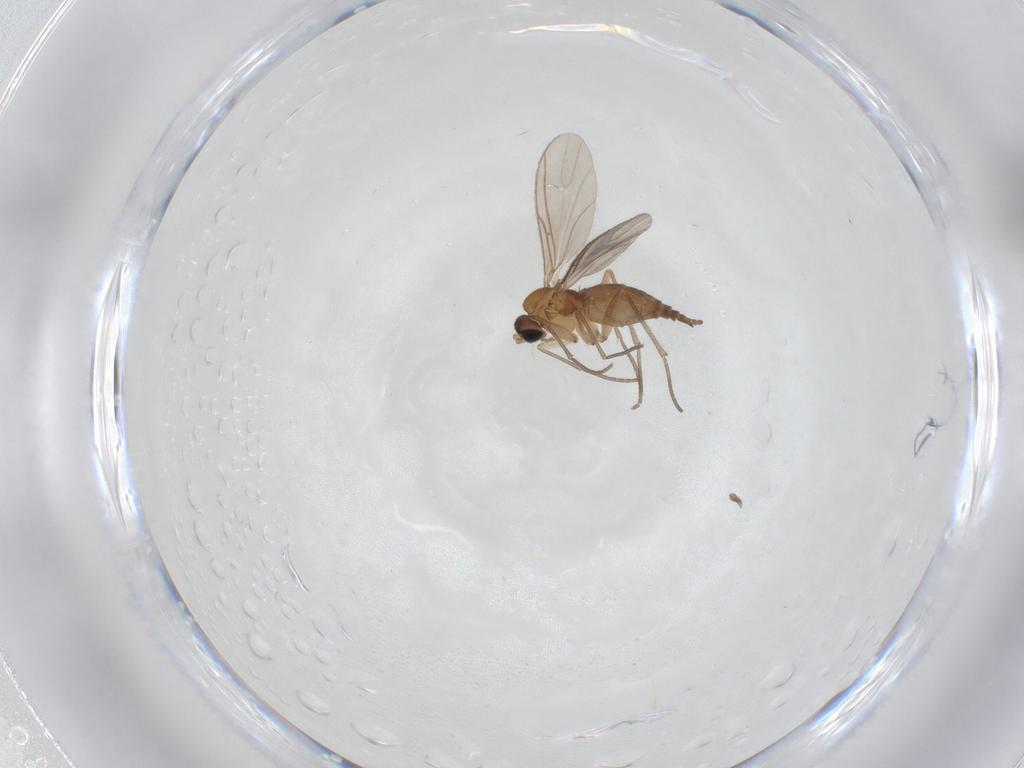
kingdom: Animalia
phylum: Arthropoda
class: Insecta
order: Diptera
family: Sciaridae
